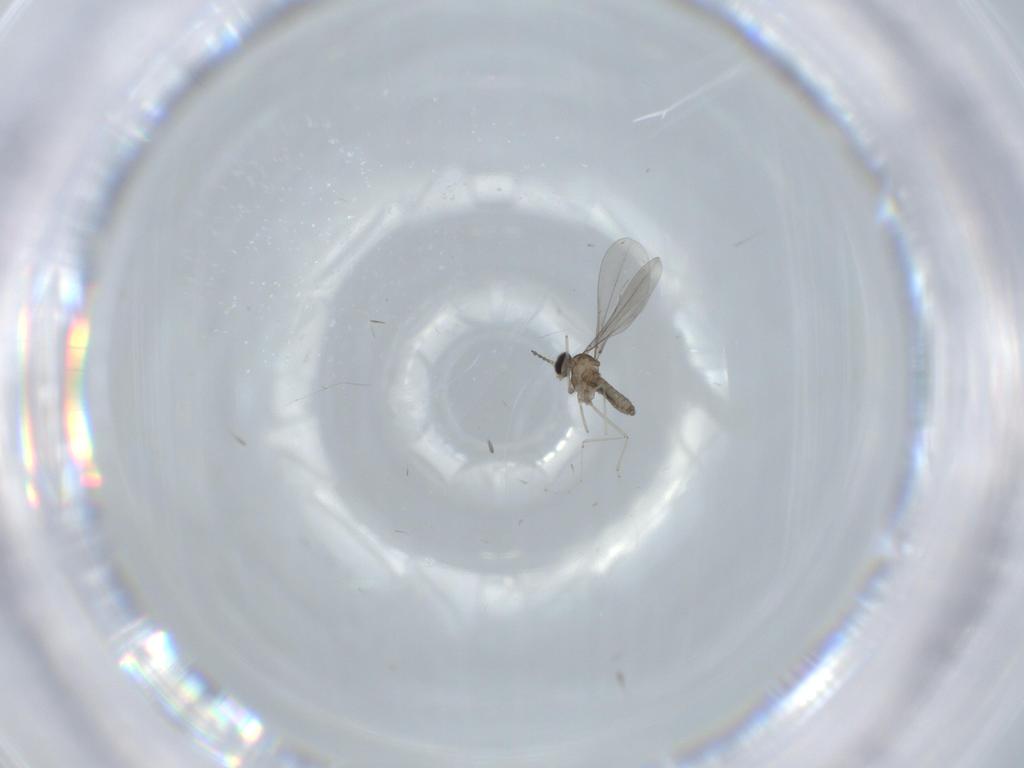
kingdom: Animalia
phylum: Arthropoda
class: Insecta
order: Diptera
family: Cecidomyiidae
